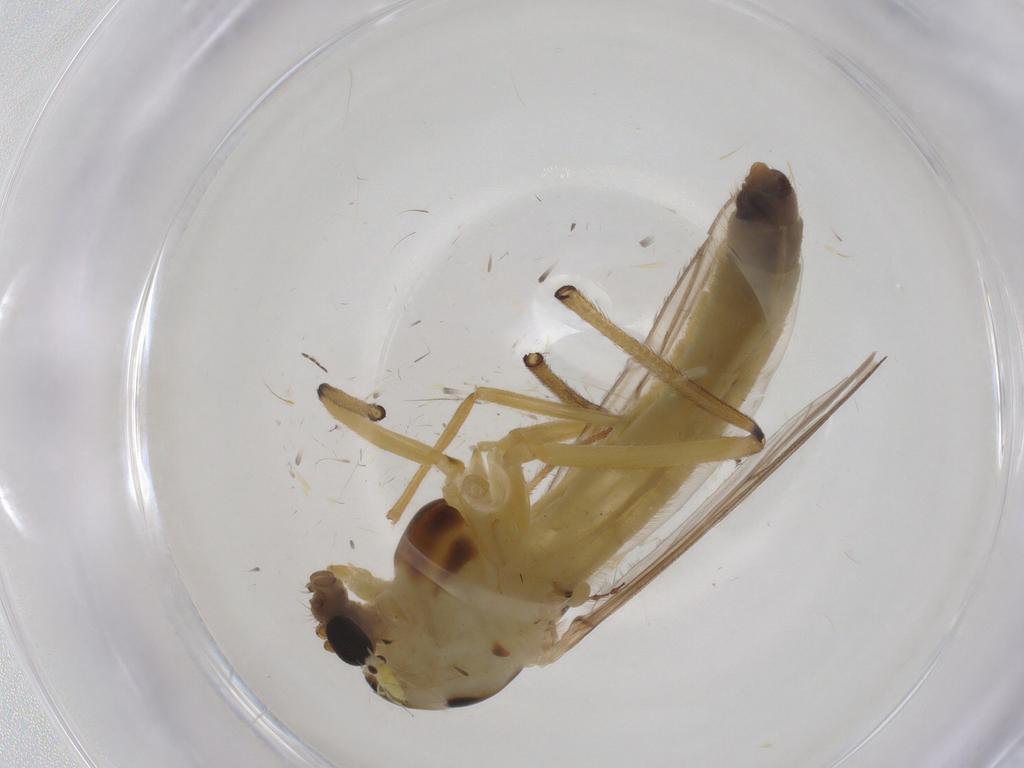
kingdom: Animalia
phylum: Arthropoda
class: Insecta
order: Diptera
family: Chironomidae
